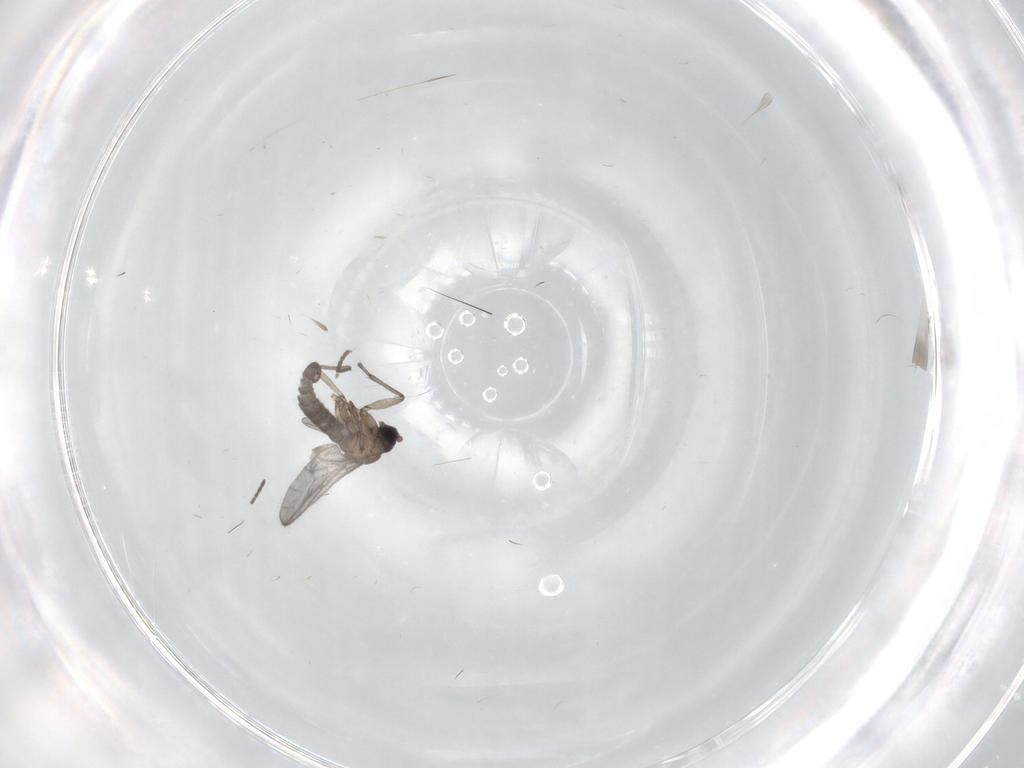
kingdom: Animalia
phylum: Arthropoda
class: Insecta
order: Diptera
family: Sciaridae
